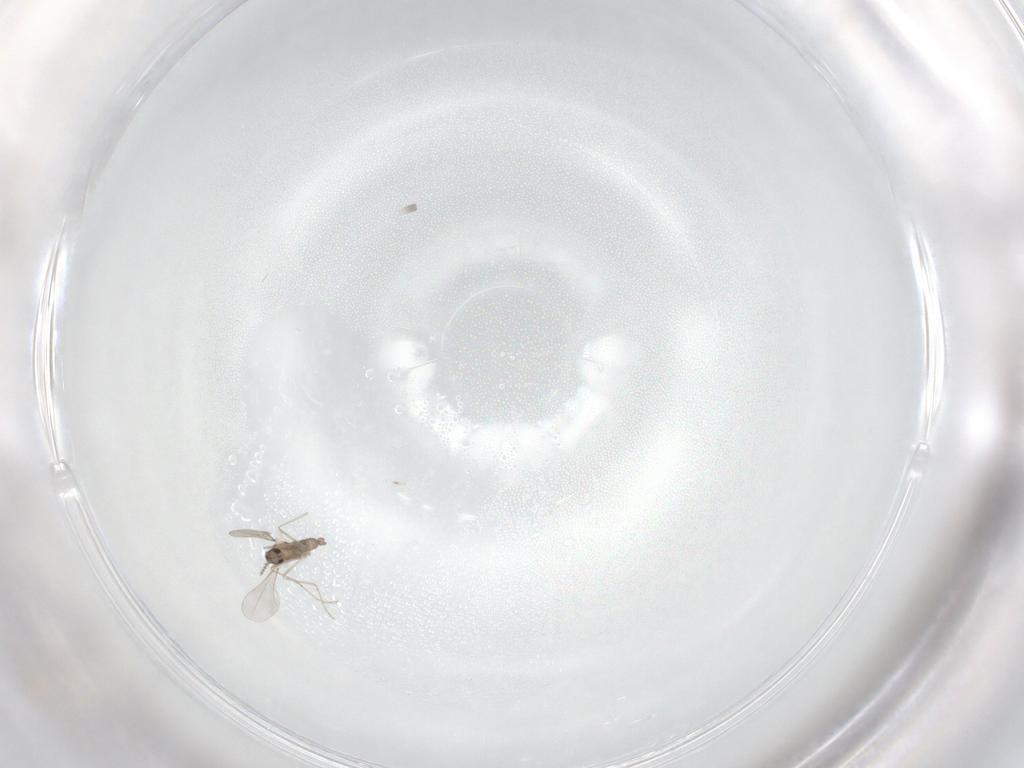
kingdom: Animalia
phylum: Arthropoda
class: Insecta
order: Diptera
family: Cecidomyiidae
